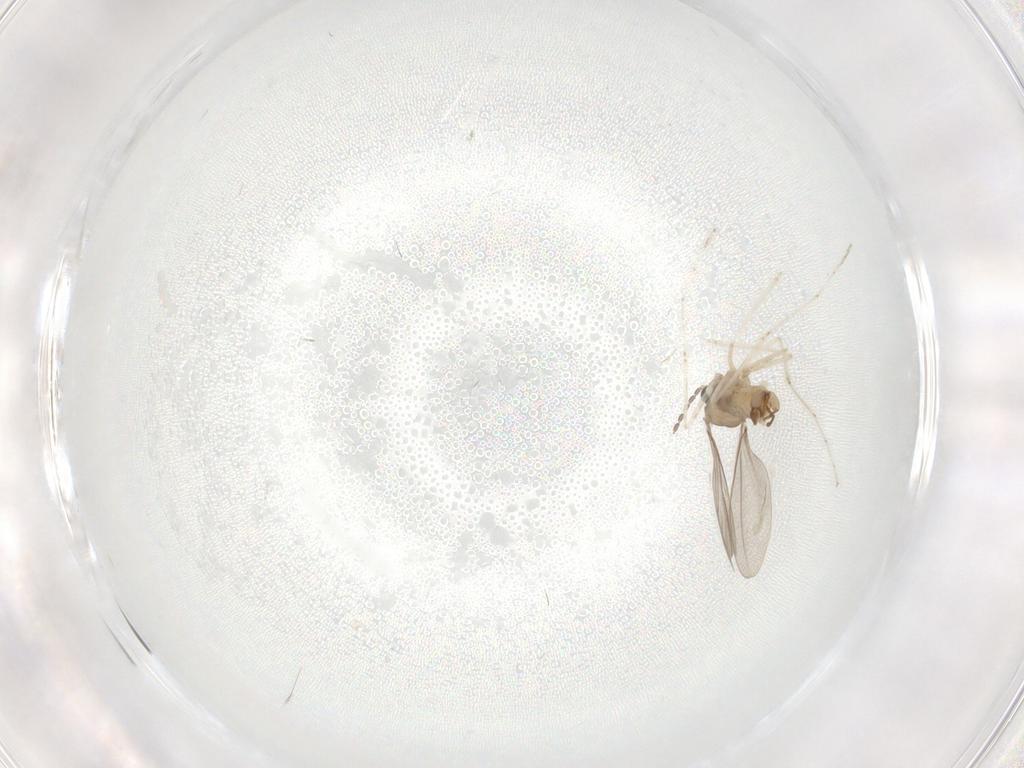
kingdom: Animalia
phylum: Arthropoda
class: Insecta
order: Diptera
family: Cecidomyiidae
